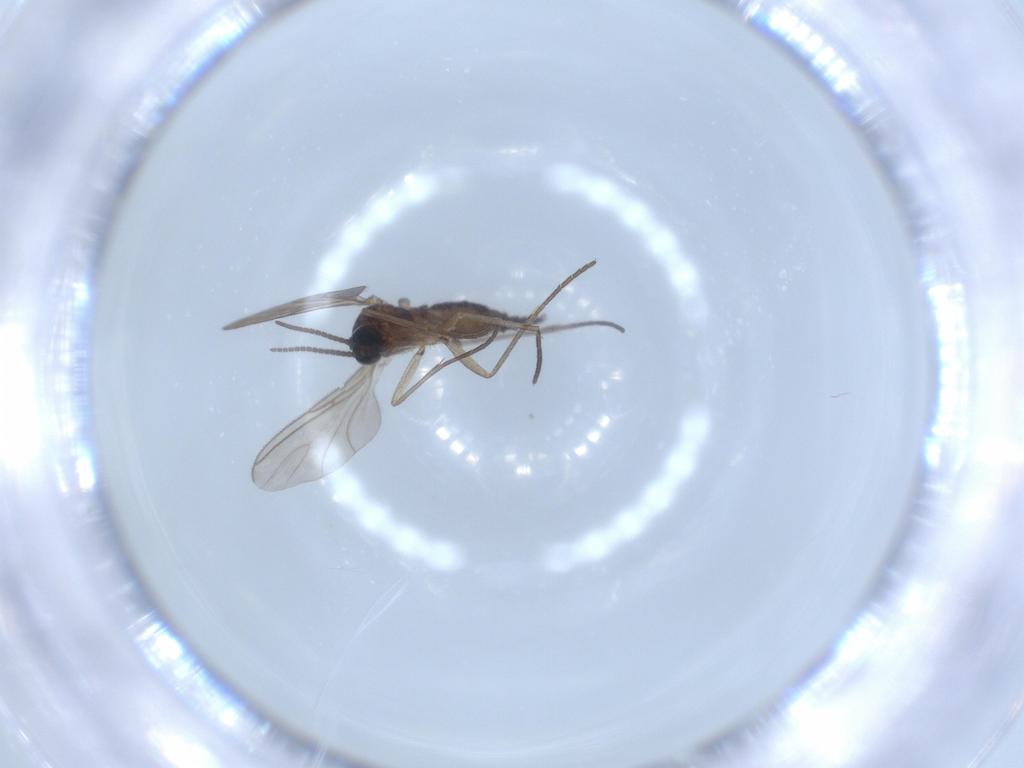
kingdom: Animalia
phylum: Arthropoda
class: Insecta
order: Diptera
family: Sciaridae
